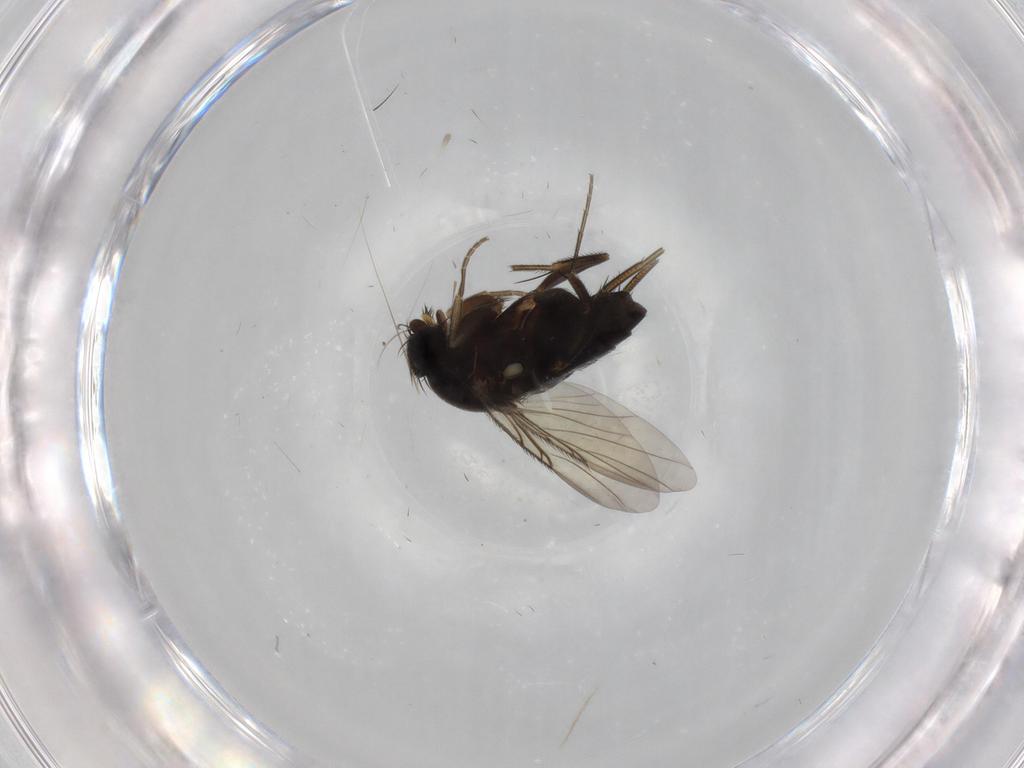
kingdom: Animalia
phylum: Arthropoda
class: Insecta
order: Diptera
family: Phoridae
